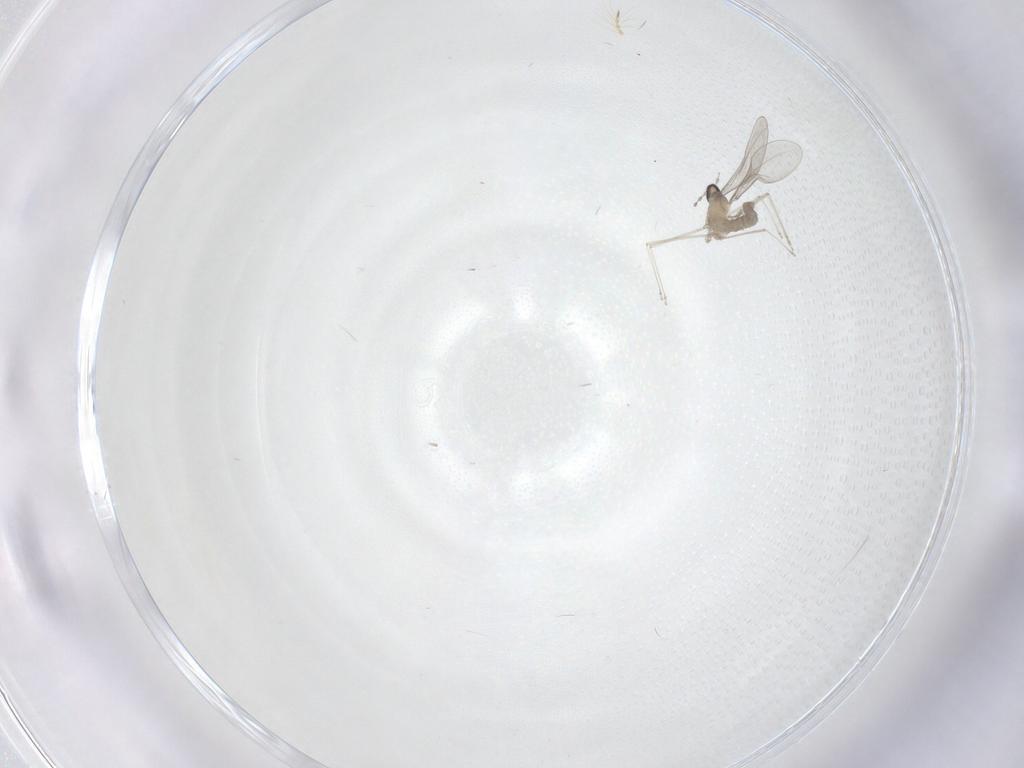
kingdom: Animalia
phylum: Arthropoda
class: Insecta
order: Diptera
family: Cecidomyiidae
